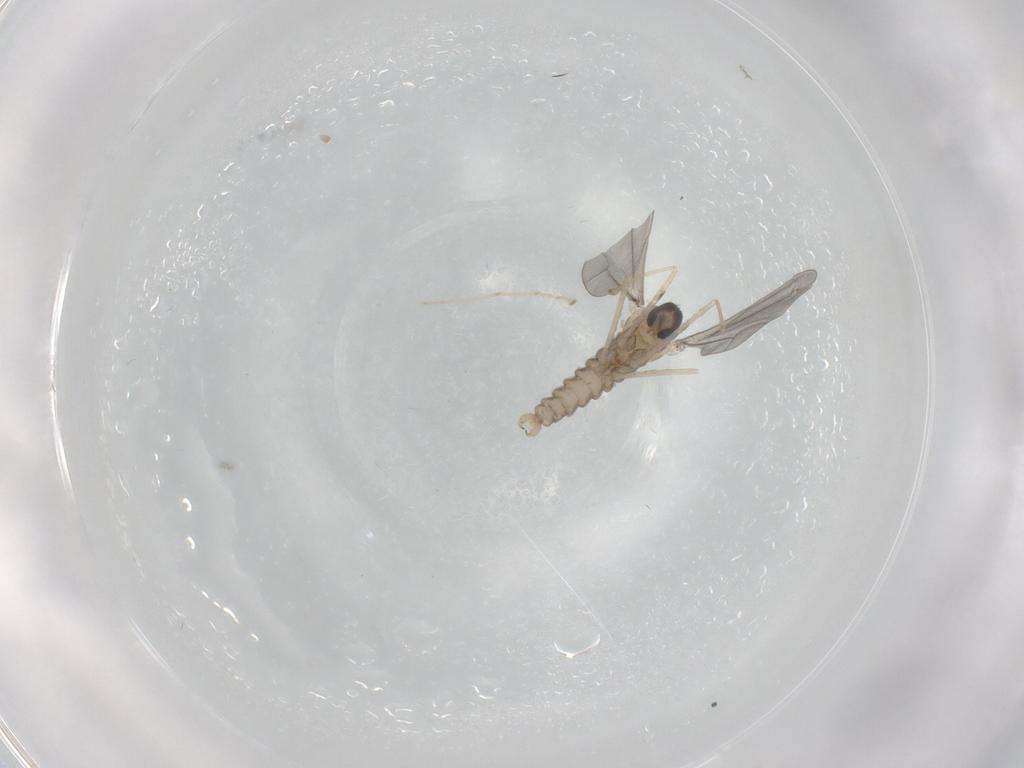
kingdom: Animalia
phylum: Arthropoda
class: Insecta
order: Diptera
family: Cecidomyiidae
